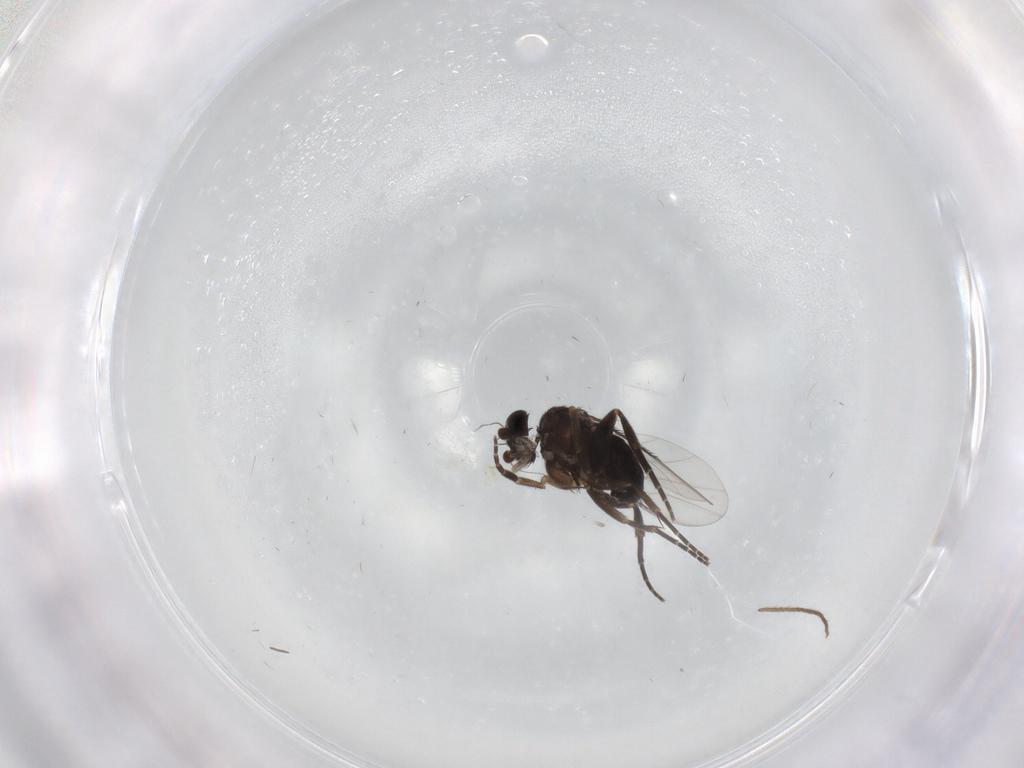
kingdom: Animalia
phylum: Arthropoda
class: Insecta
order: Diptera
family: Phoridae
